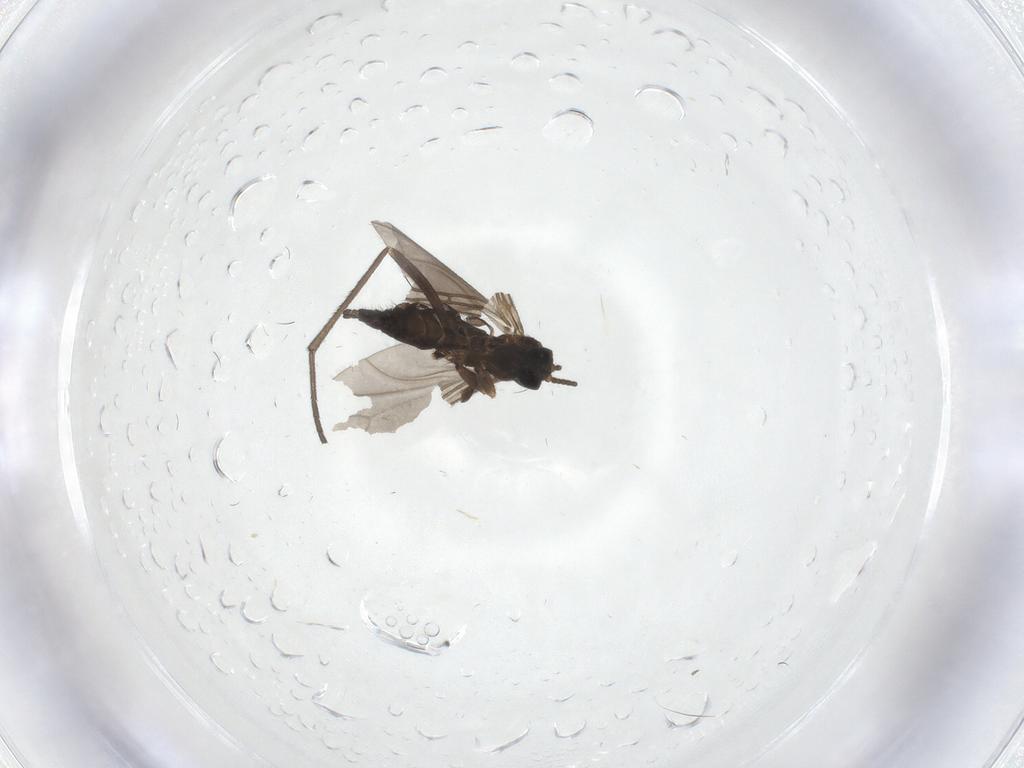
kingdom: Animalia
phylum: Arthropoda
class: Insecta
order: Diptera
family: Sciaridae
